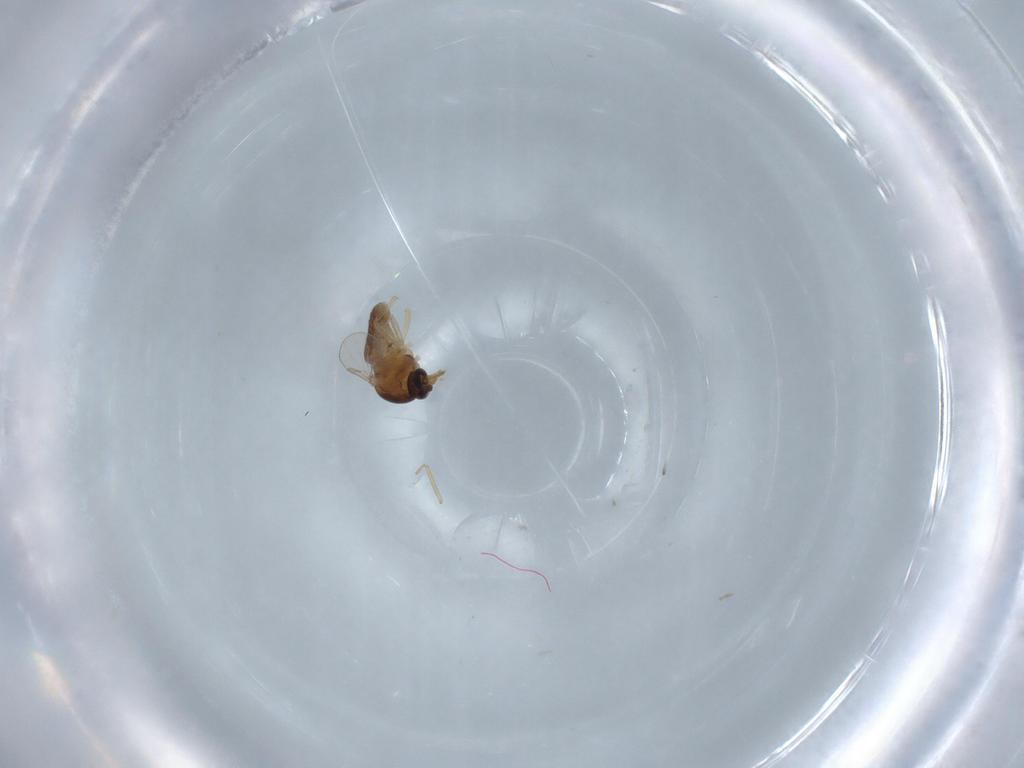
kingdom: Animalia
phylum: Arthropoda
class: Insecta
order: Diptera
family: Ceratopogonidae
